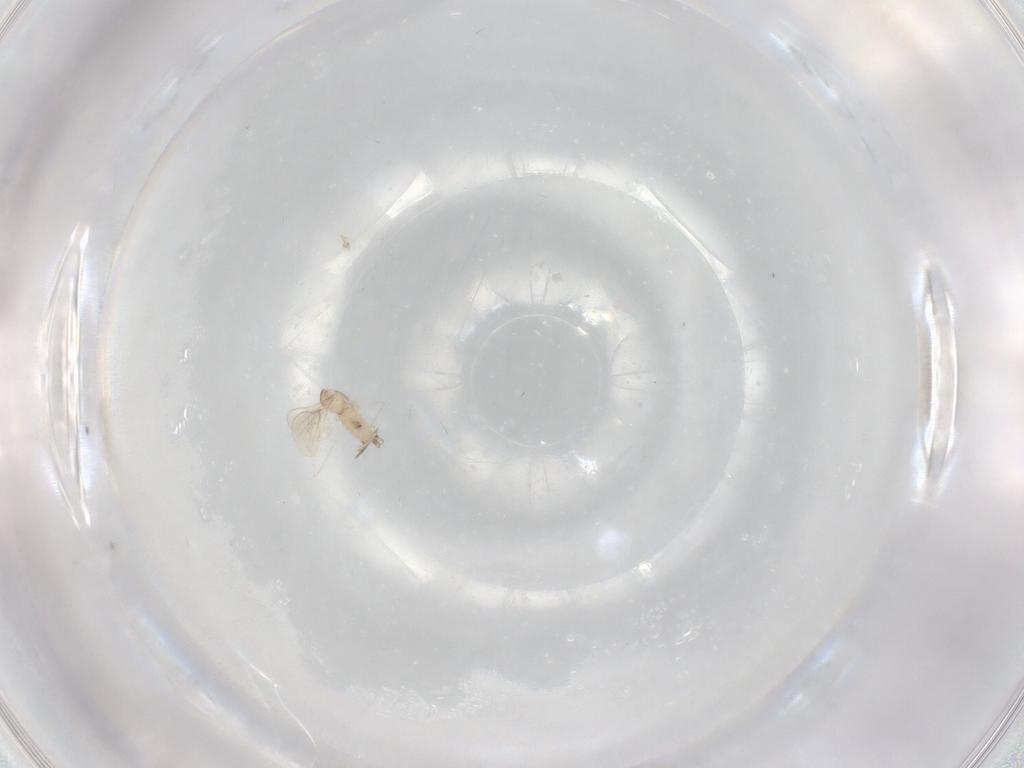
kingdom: Animalia
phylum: Arthropoda
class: Insecta
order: Diptera
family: Cecidomyiidae
